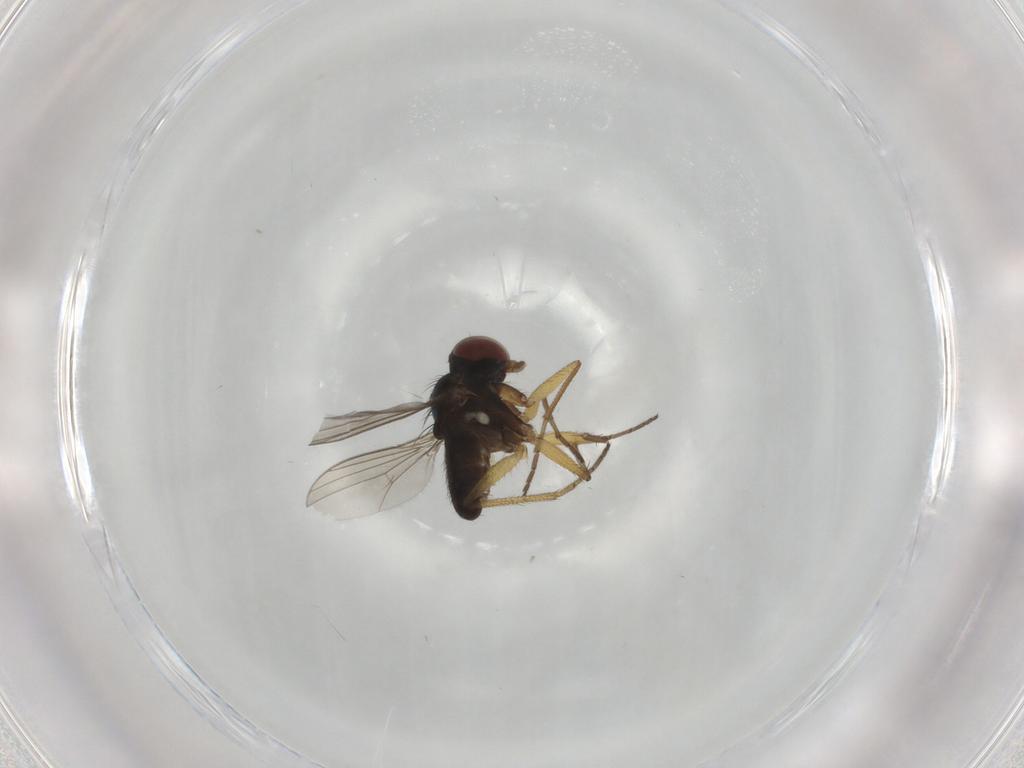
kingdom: Animalia
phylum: Arthropoda
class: Insecta
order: Diptera
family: Dolichopodidae
